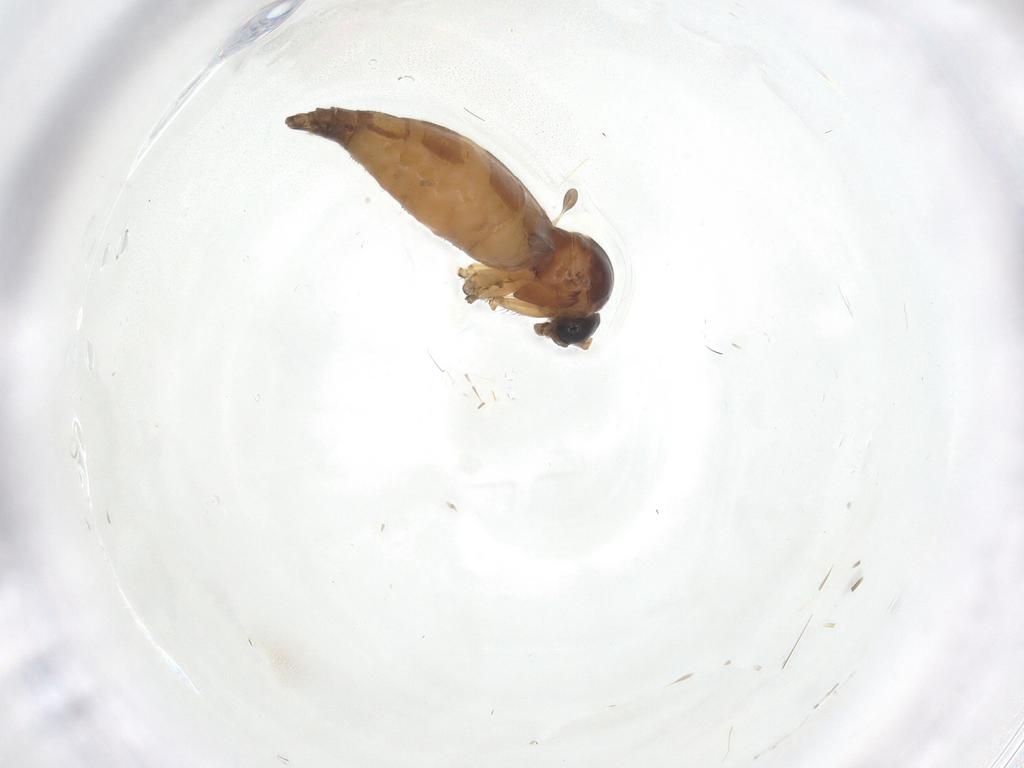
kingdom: Animalia
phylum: Arthropoda
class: Insecta
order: Diptera
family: Sciaridae
